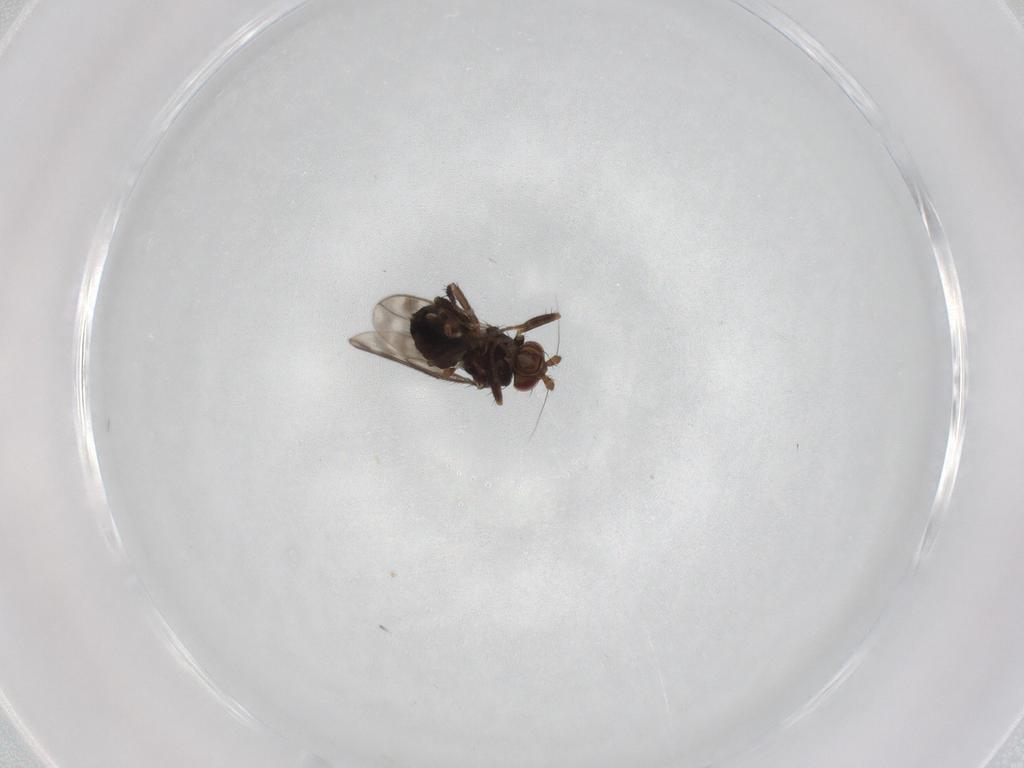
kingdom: Animalia
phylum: Arthropoda
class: Insecta
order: Diptera
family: Sphaeroceridae
